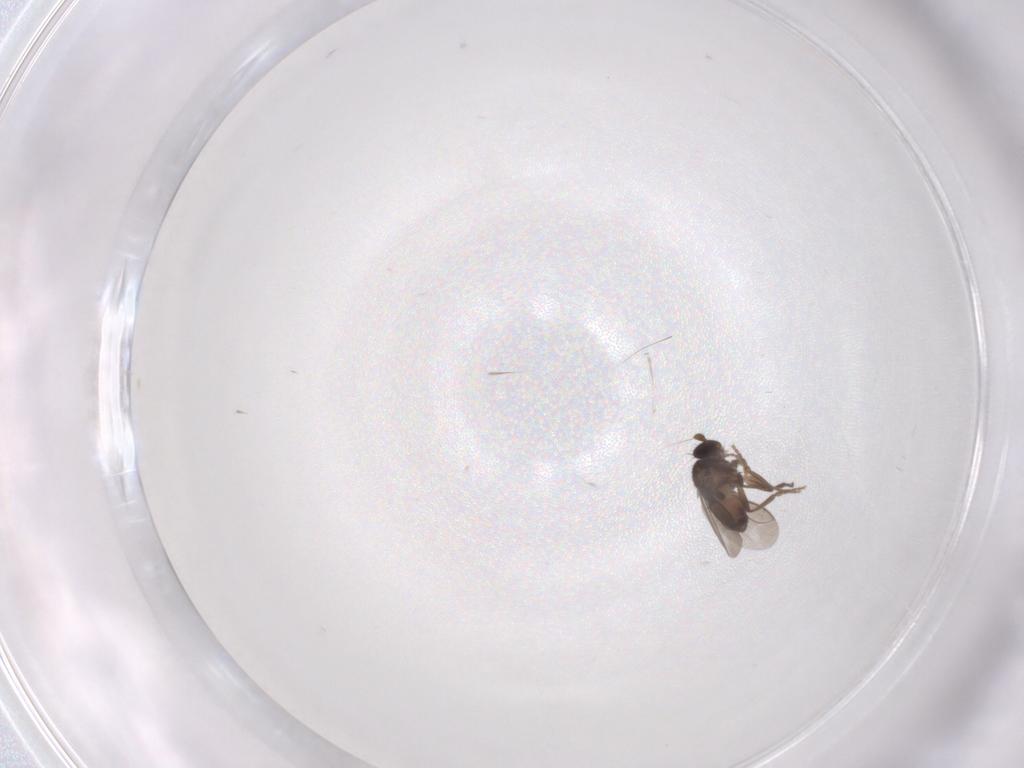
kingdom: Animalia
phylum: Arthropoda
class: Insecta
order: Diptera
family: Sphaeroceridae
